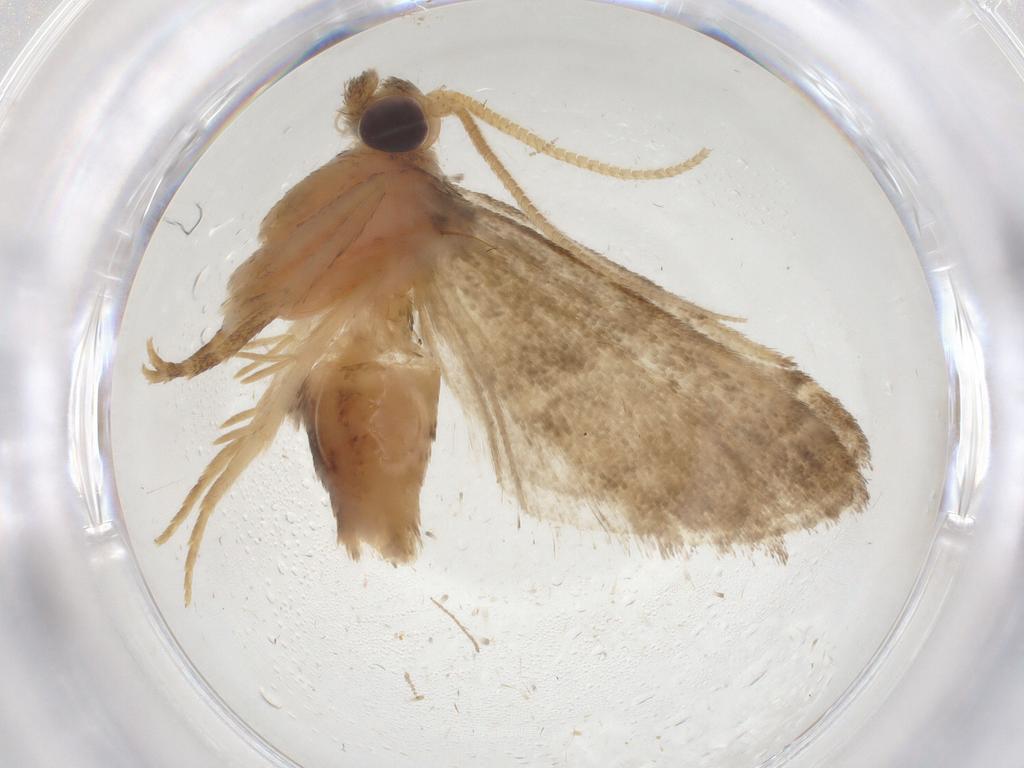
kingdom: Animalia
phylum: Arthropoda
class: Insecta
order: Lepidoptera
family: Pyralidae
